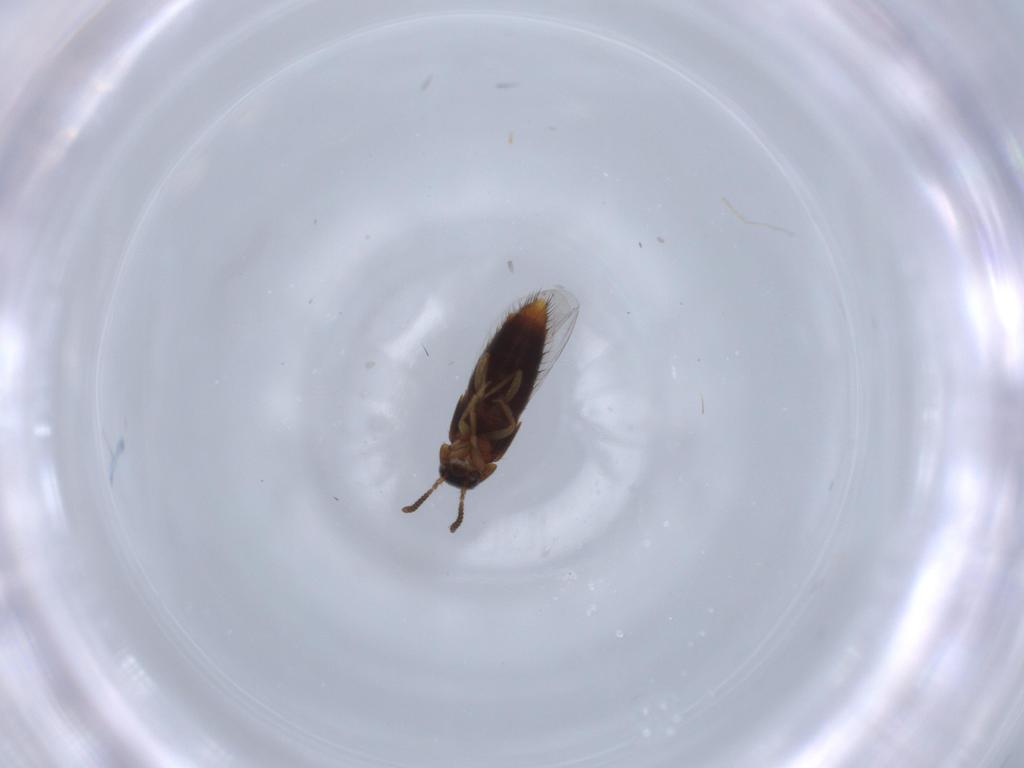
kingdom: Animalia
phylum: Arthropoda
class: Insecta
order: Coleoptera
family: Staphylinidae
